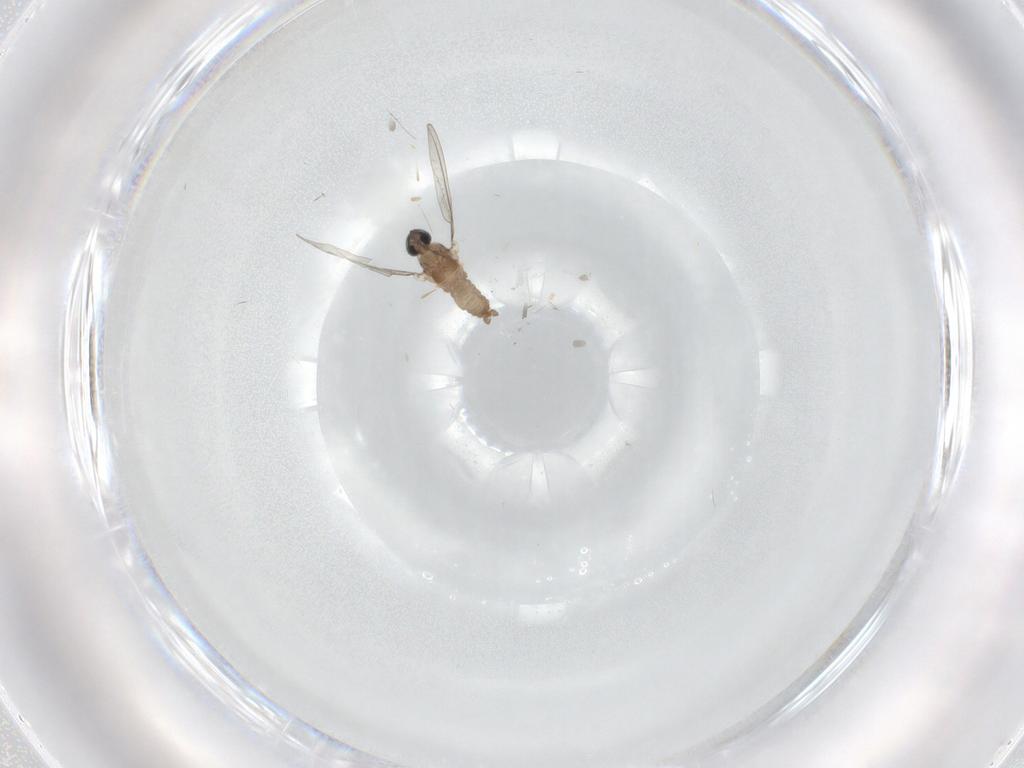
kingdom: Animalia
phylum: Arthropoda
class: Insecta
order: Diptera
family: Cecidomyiidae
